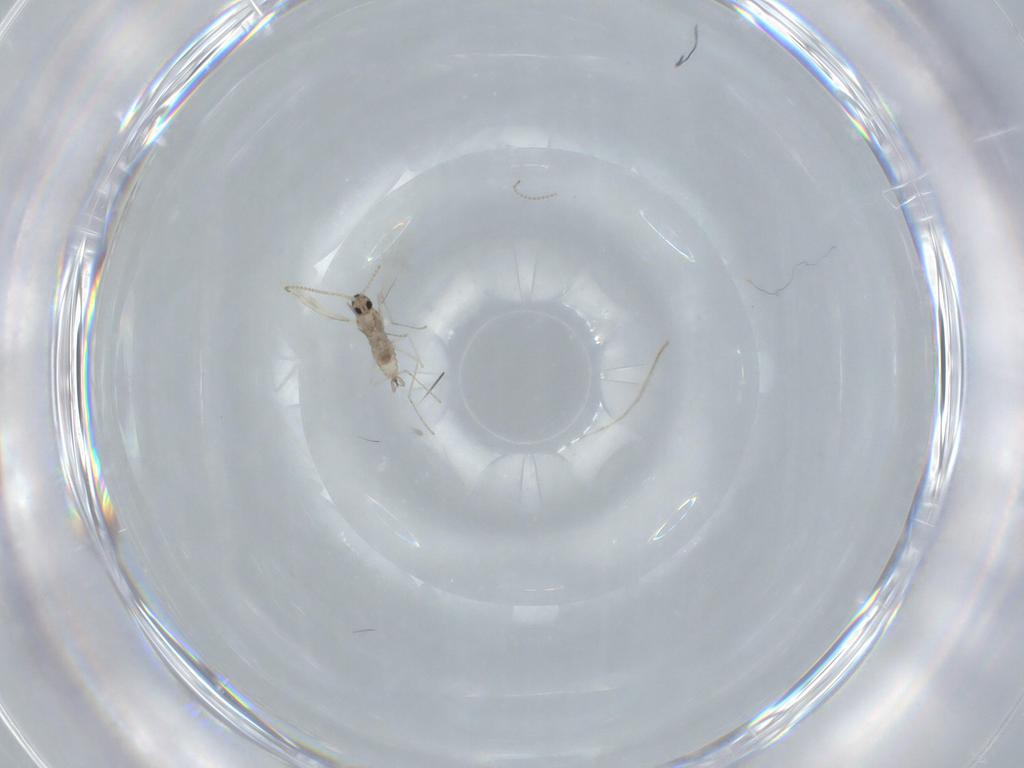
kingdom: Animalia
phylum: Arthropoda
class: Insecta
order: Diptera
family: Cecidomyiidae
